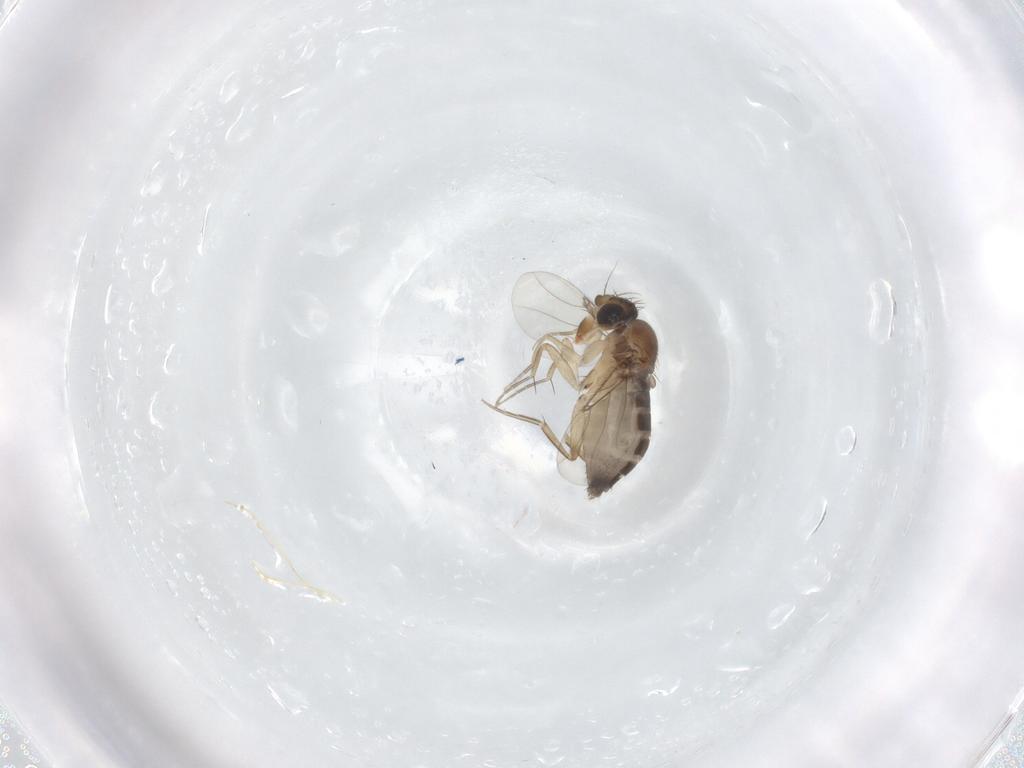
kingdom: Animalia
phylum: Arthropoda
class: Insecta
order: Diptera
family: Phoridae
